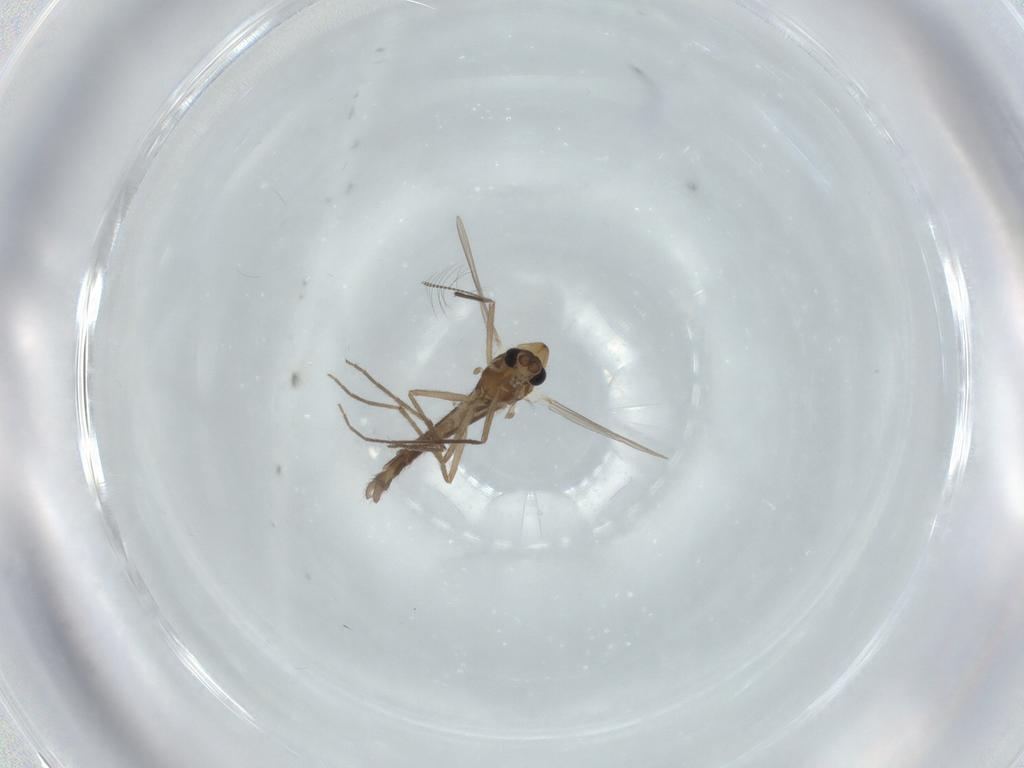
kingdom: Animalia
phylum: Arthropoda
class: Insecta
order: Diptera
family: Chironomidae
